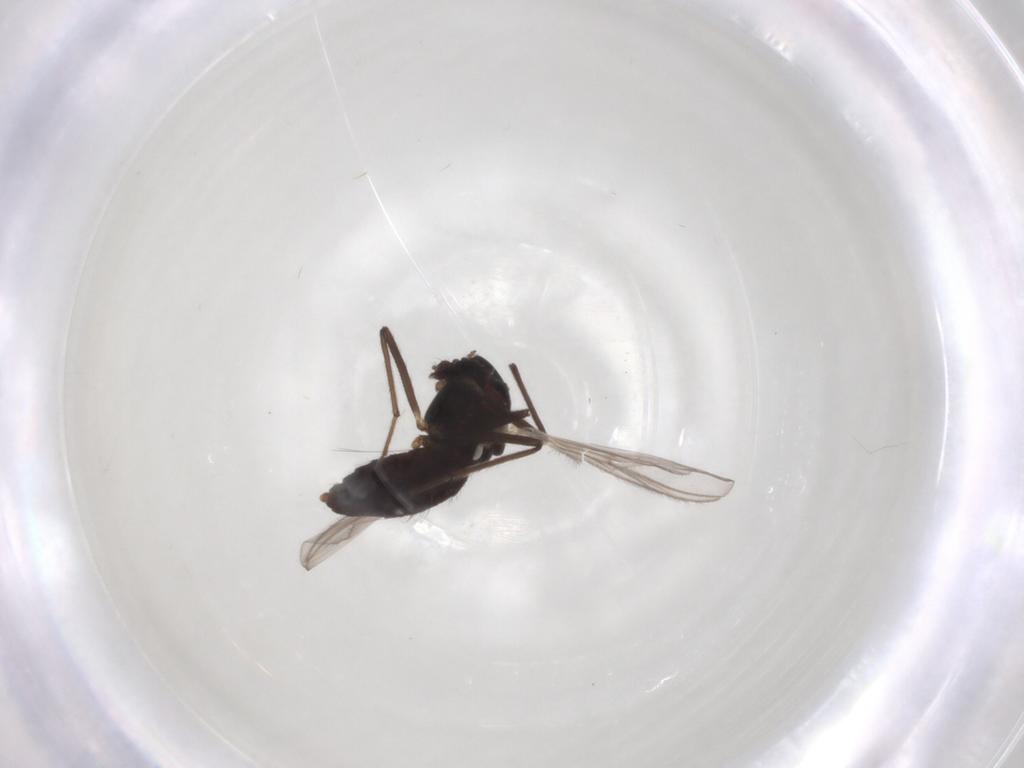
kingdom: Animalia
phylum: Arthropoda
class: Insecta
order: Diptera
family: Chironomidae
